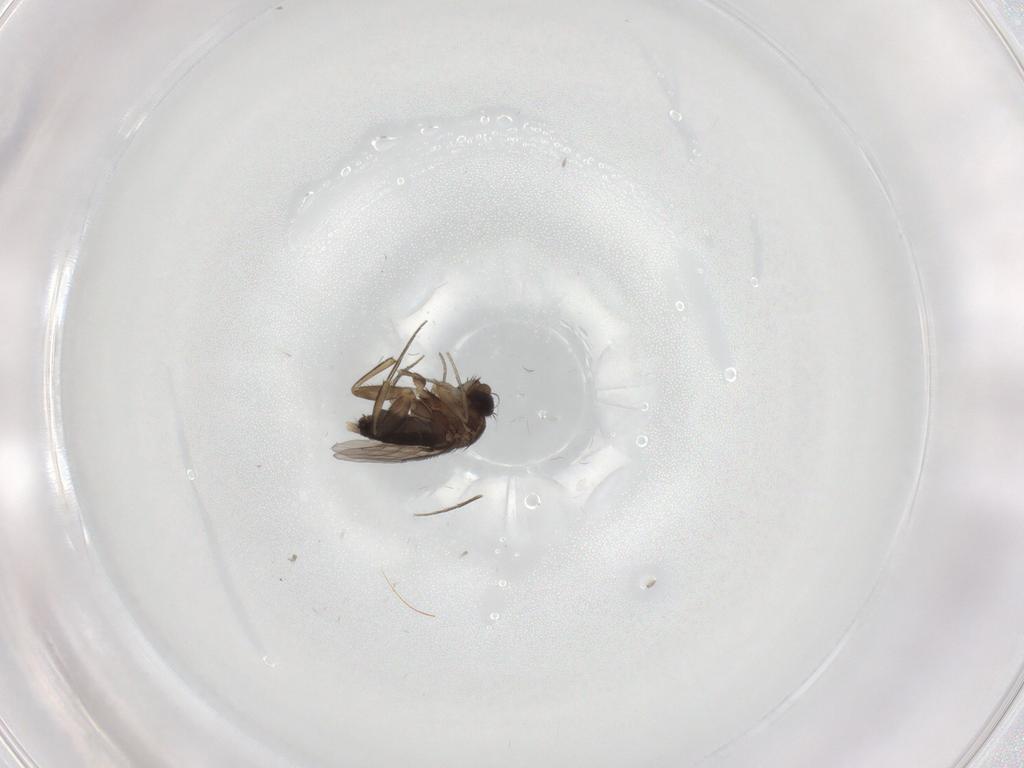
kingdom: Animalia
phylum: Arthropoda
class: Insecta
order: Diptera
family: Phoridae
